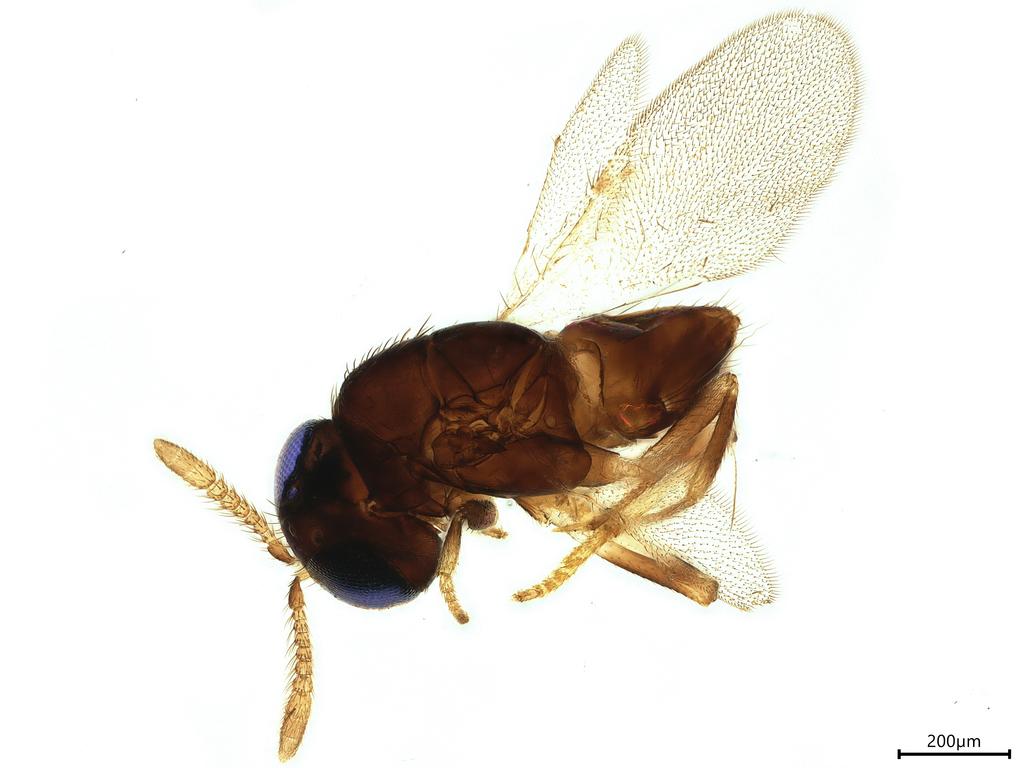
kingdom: Animalia
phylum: Arthropoda
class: Insecta
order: Hymenoptera
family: Encyrtidae
